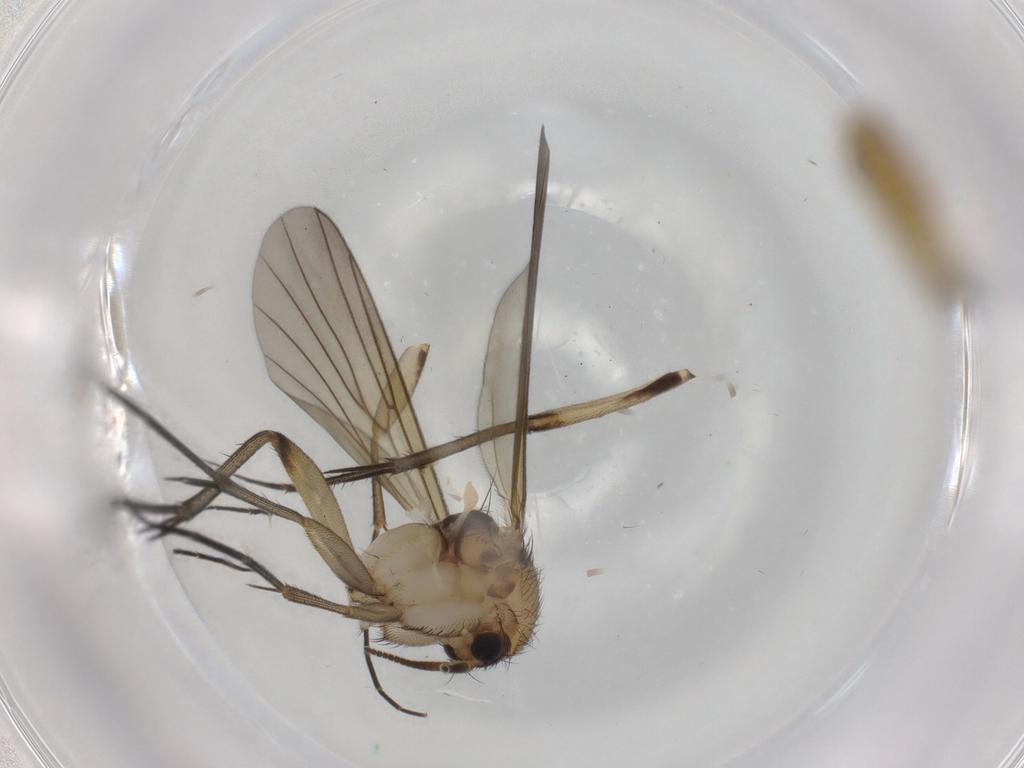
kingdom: Animalia
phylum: Arthropoda
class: Insecta
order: Diptera
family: Mycetophilidae
